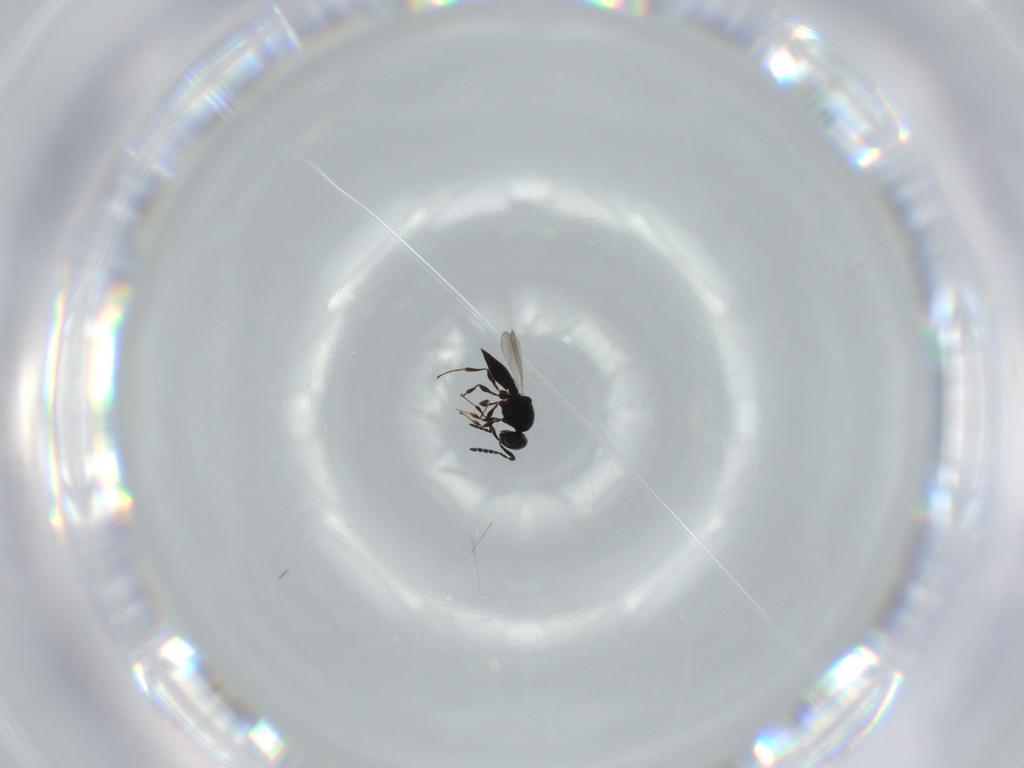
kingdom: Animalia
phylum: Arthropoda
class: Insecta
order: Diptera
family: Mythicomyiidae
